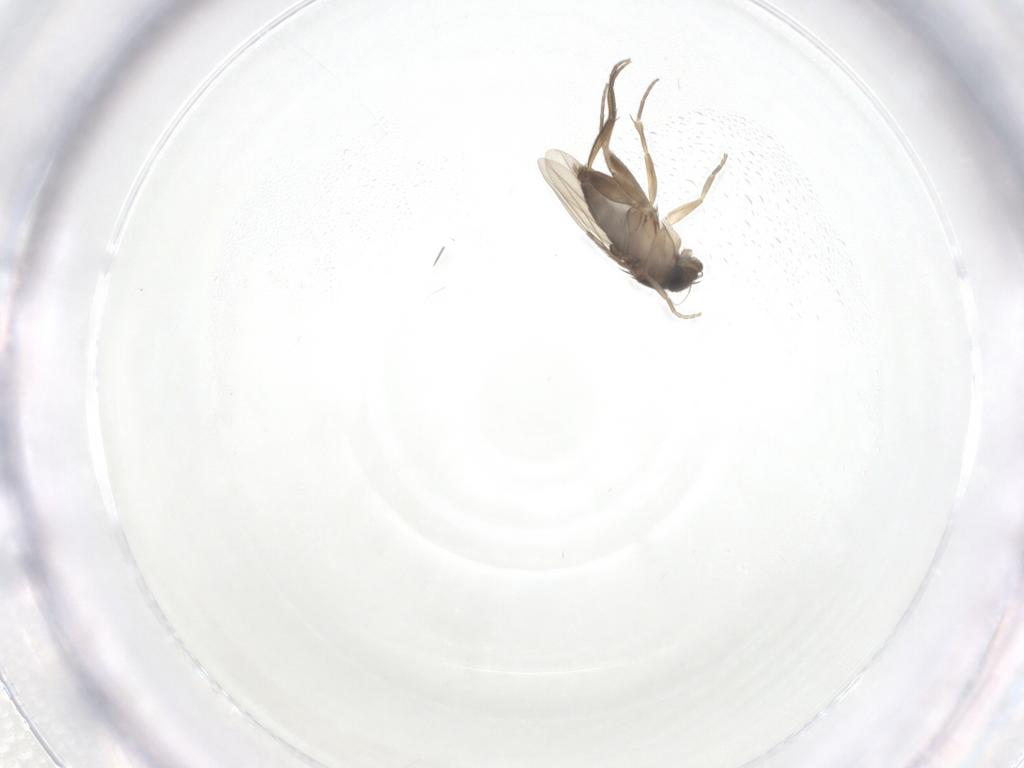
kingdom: Animalia
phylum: Arthropoda
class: Insecta
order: Diptera
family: Phoridae
